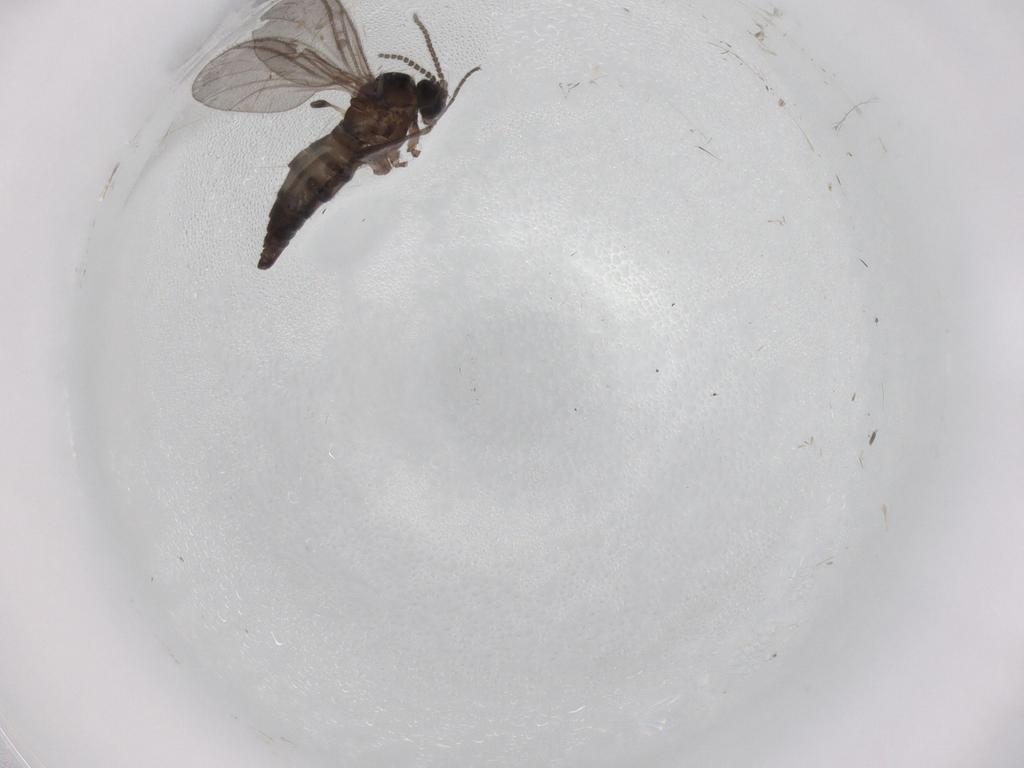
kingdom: Animalia
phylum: Arthropoda
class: Insecta
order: Diptera
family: Sciaridae
